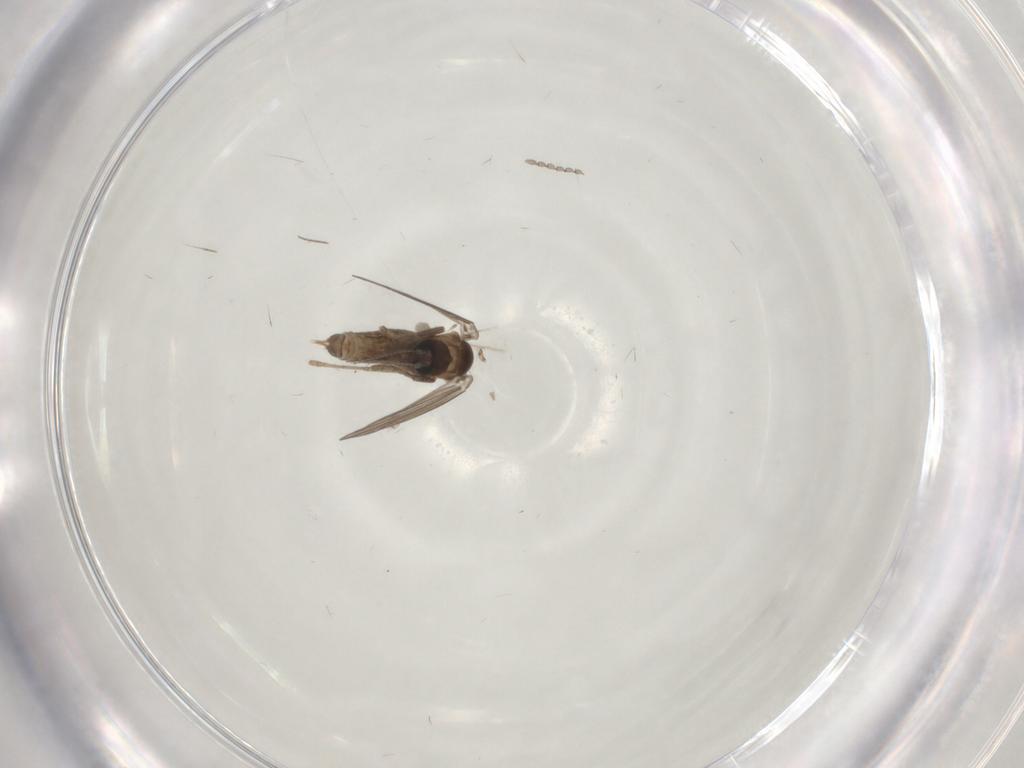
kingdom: Animalia
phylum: Arthropoda
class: Insecta
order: Diptera
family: Cecidomyiidae
